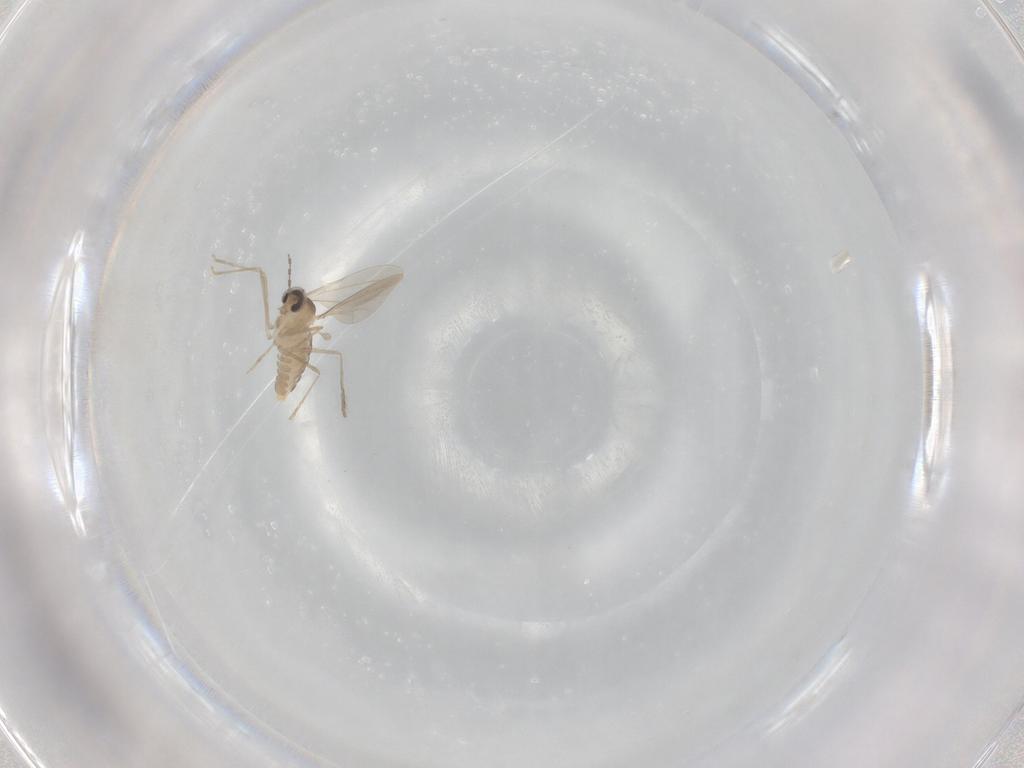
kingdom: Animalia
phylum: Arthropoda
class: Insecta
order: Diptera
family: Cecidomyiidae
